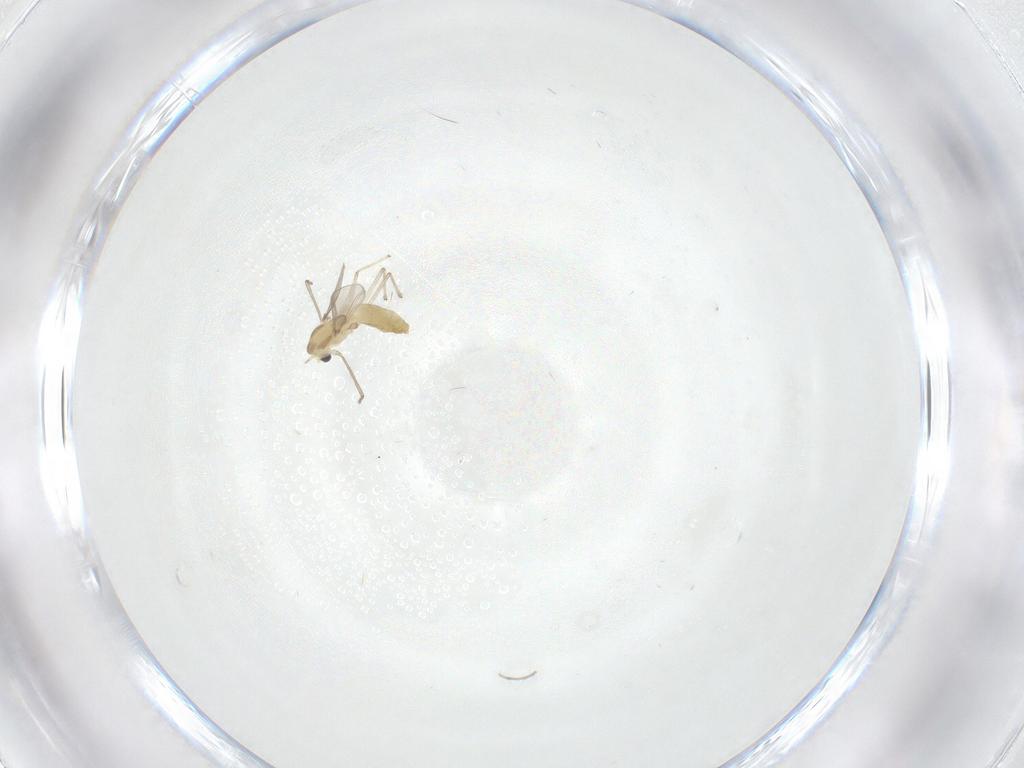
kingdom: Animalia
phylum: Arthropoda
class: Insecta
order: Diptera
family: Chironomidae
